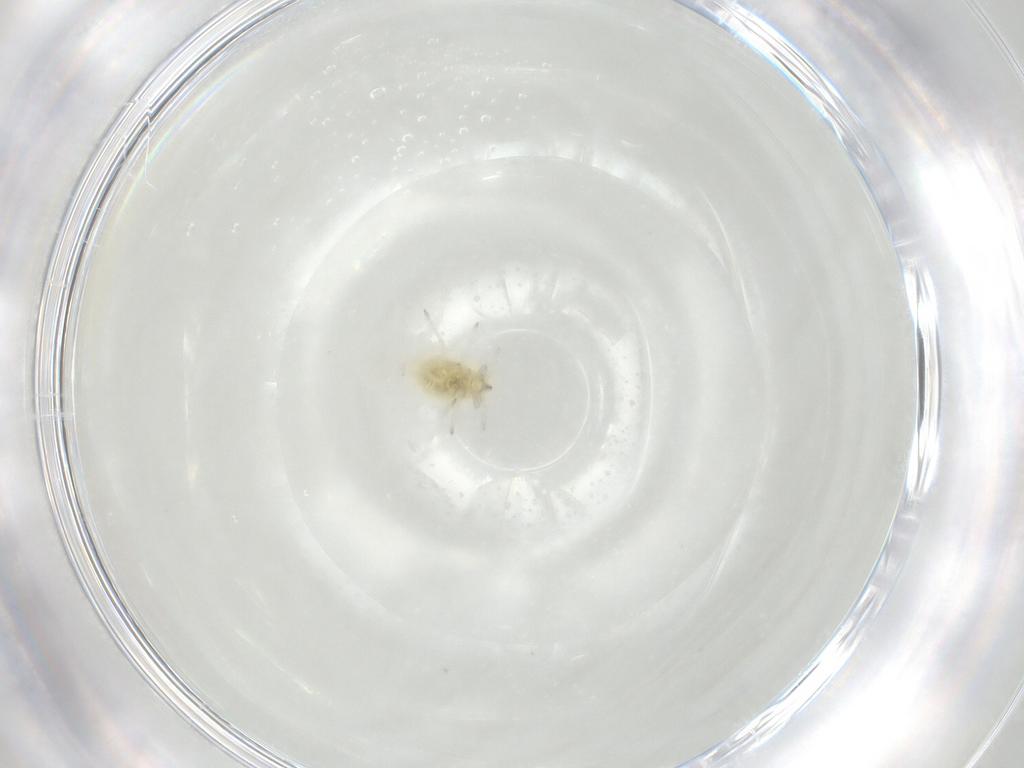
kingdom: Animalia
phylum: Arthropoda
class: Insecta
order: Neuroptera
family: Coniopterygidae
